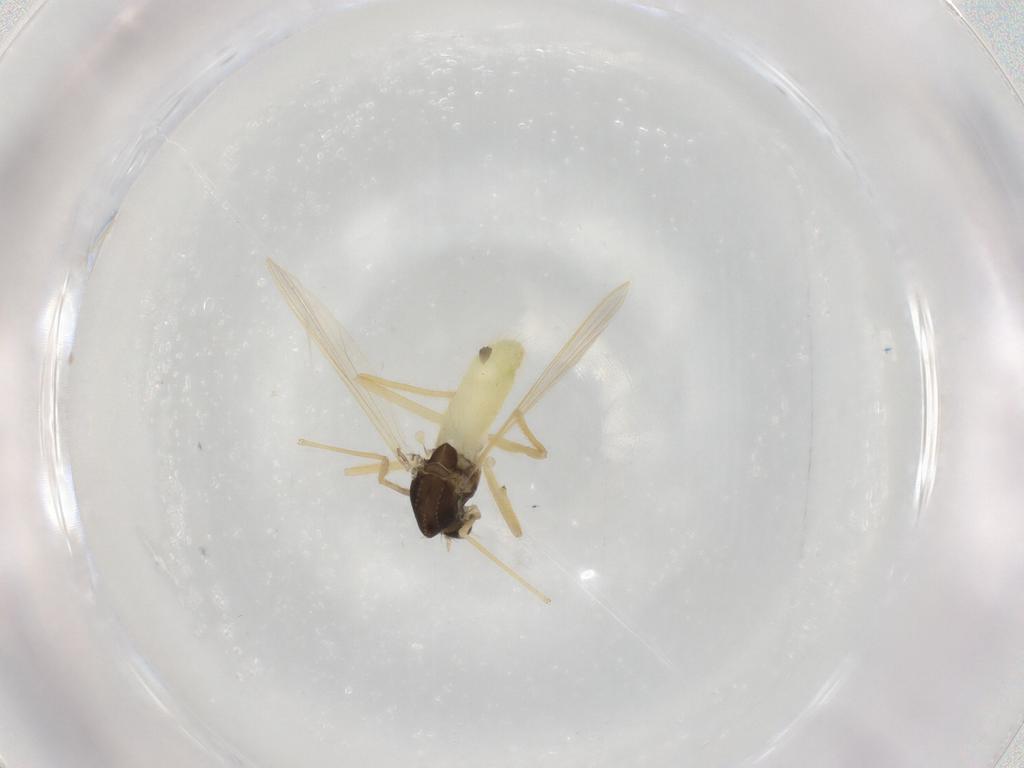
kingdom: Animalia
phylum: Arthropoda
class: Insecta
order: Diptera
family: Chironomidae
